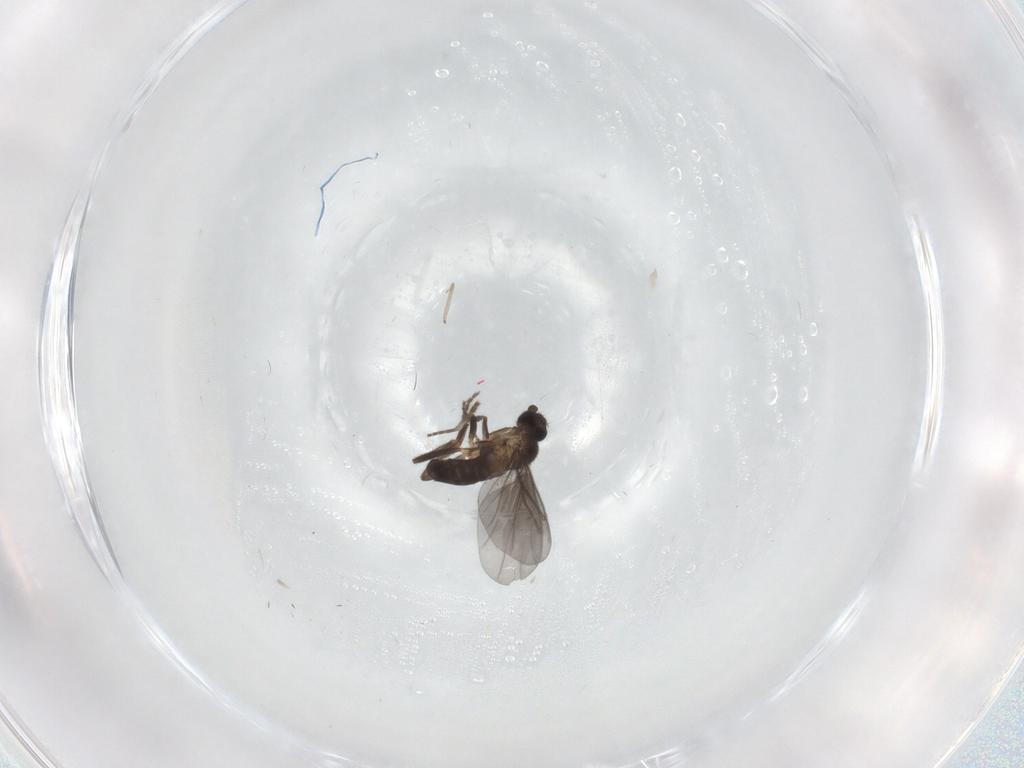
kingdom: Animalia
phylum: Arthropoda
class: Insecta
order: Diptera
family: Phoridae
